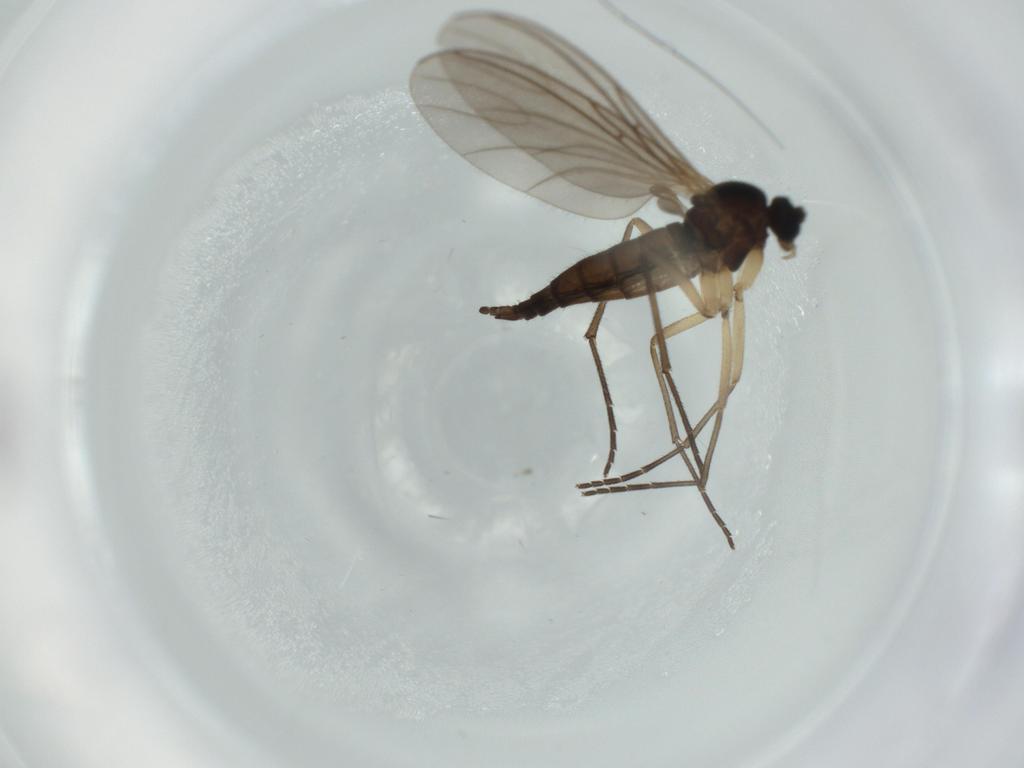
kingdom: Animalia
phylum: Arthropoda
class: Insecta
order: Diptera
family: Sciaridae
